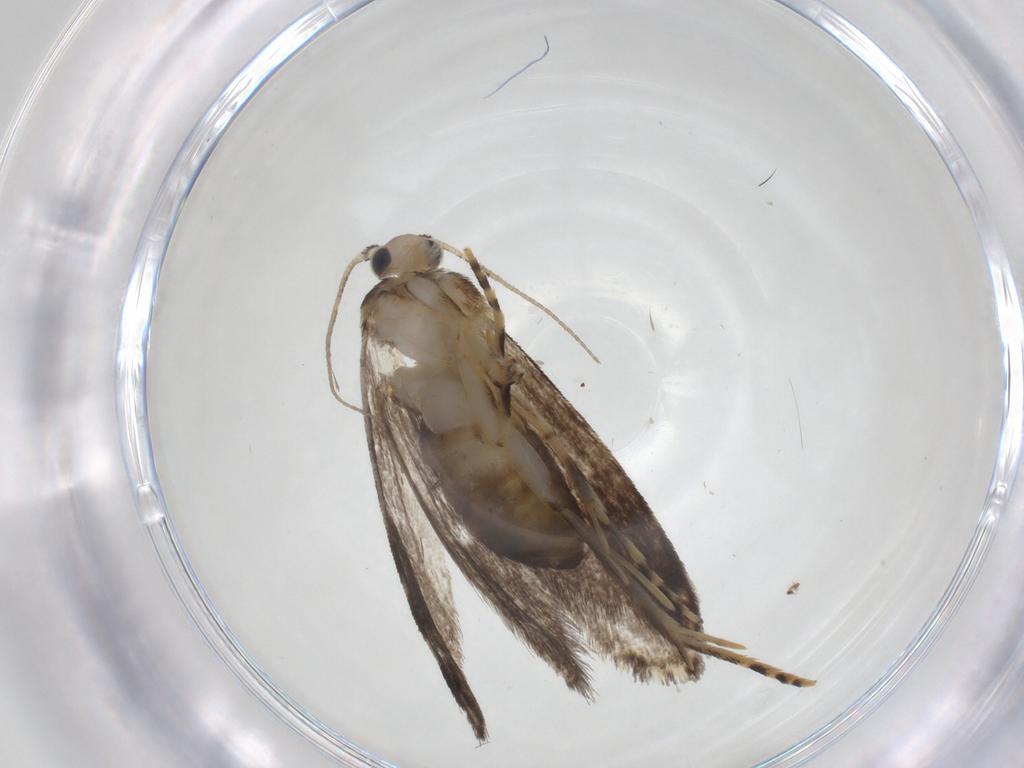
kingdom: Animalia
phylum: Arthropoda
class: Insecta
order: Lepidoptera
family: Tineidae
